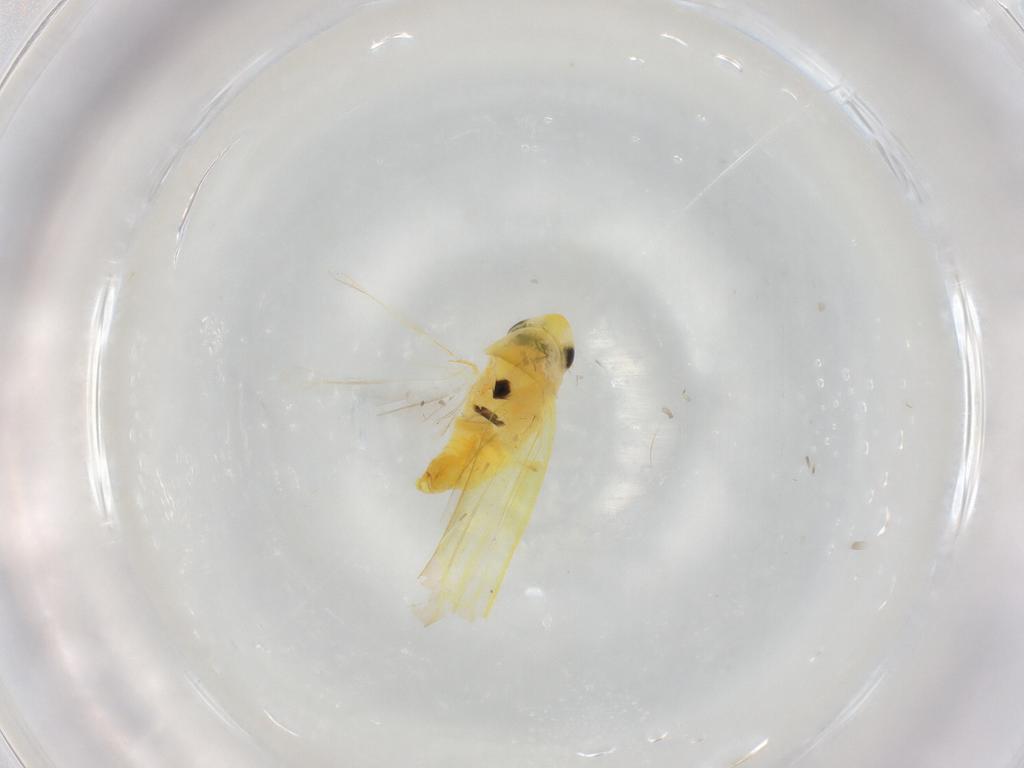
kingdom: Animalia
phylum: Arthropoda
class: Insecta
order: Hemiptera
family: Cicadellidae
